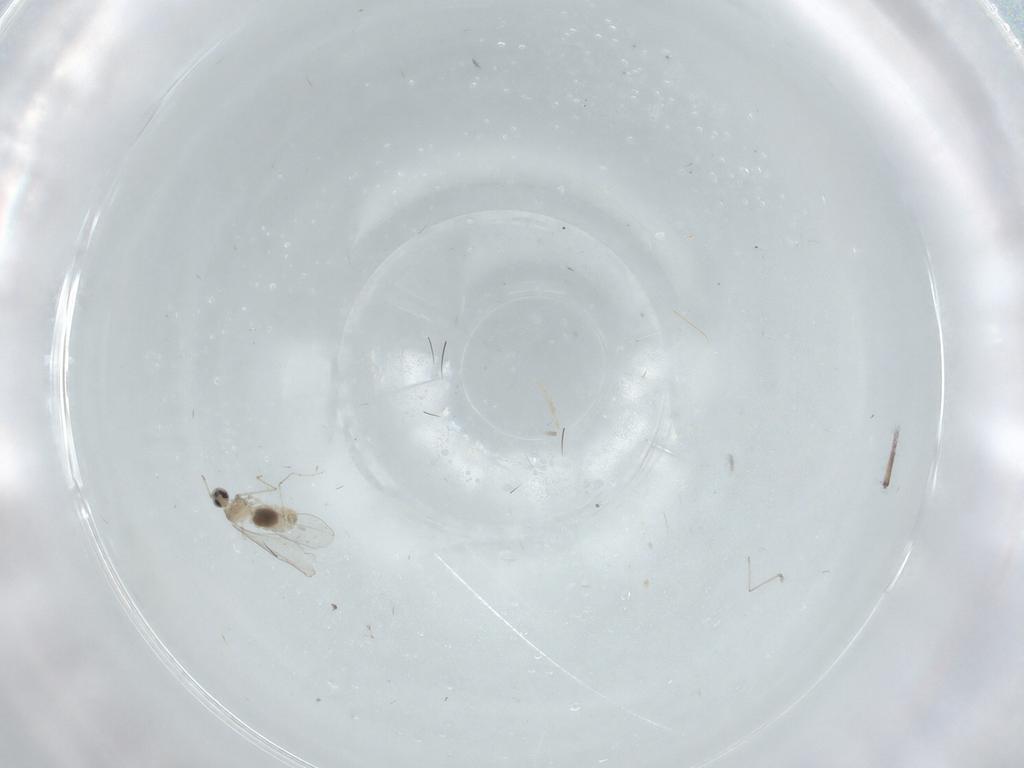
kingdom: Animalia
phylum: Arthropoda
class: Insecta
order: Diptera
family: Cecidomyiidae
